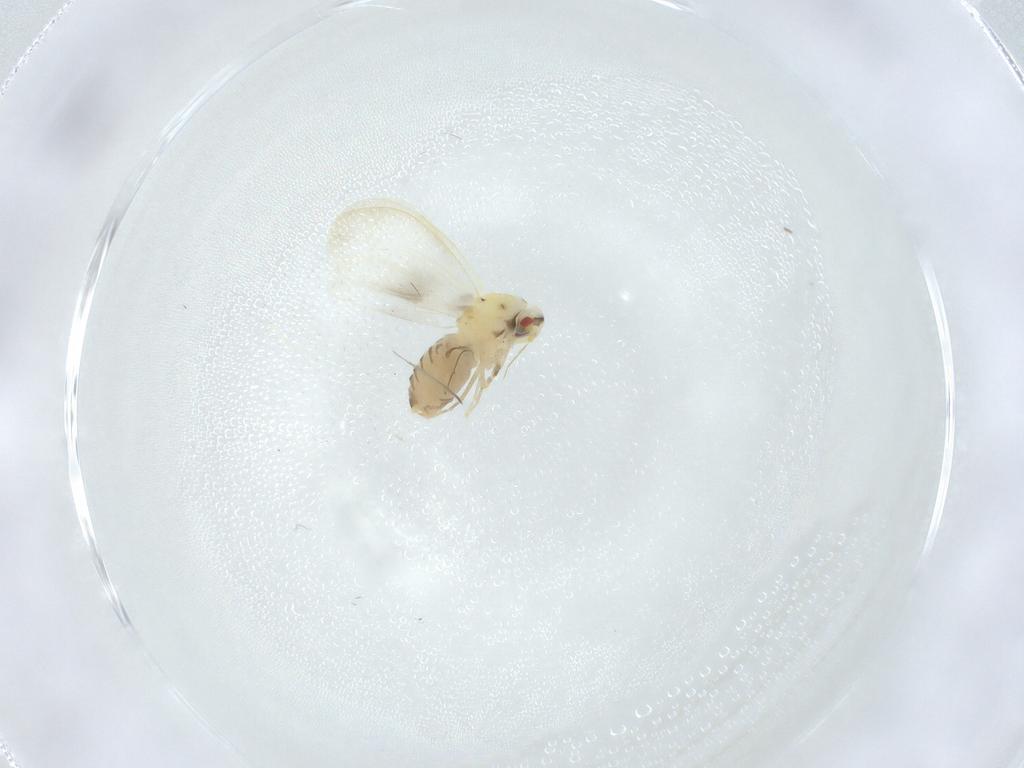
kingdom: Animalia
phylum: Arthropoda
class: Insecta
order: Diptera
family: Cecidomyiidae
